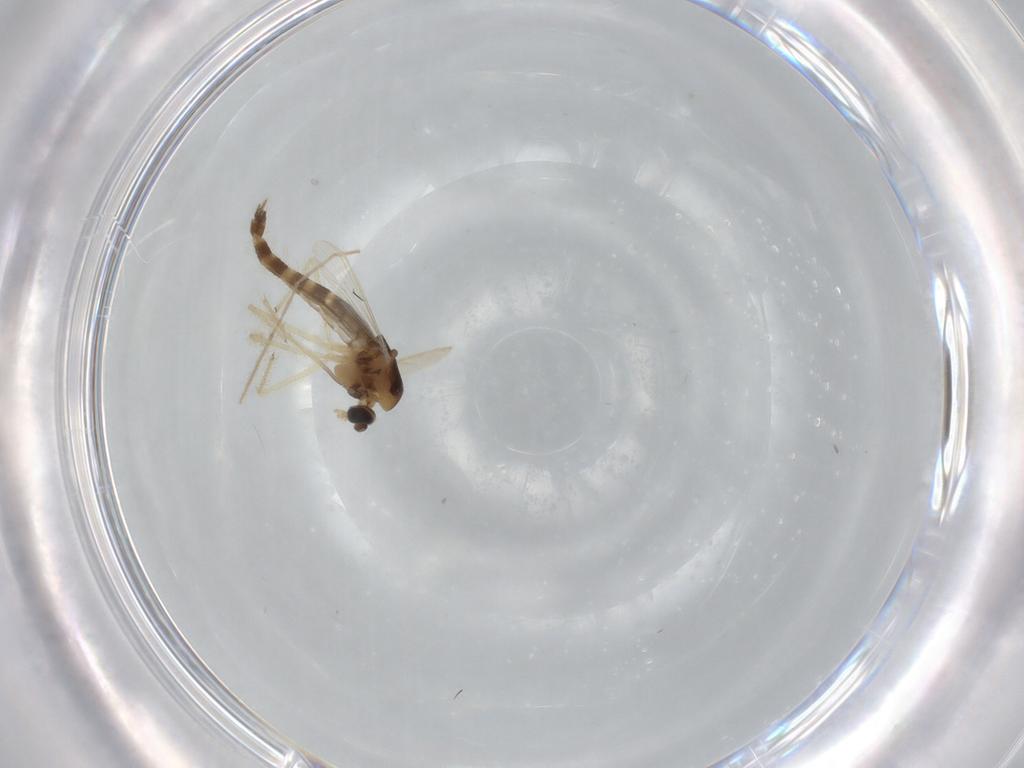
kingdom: Animalia
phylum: Arthropoda
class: Insecta
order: Diptera
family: Chironomidae
